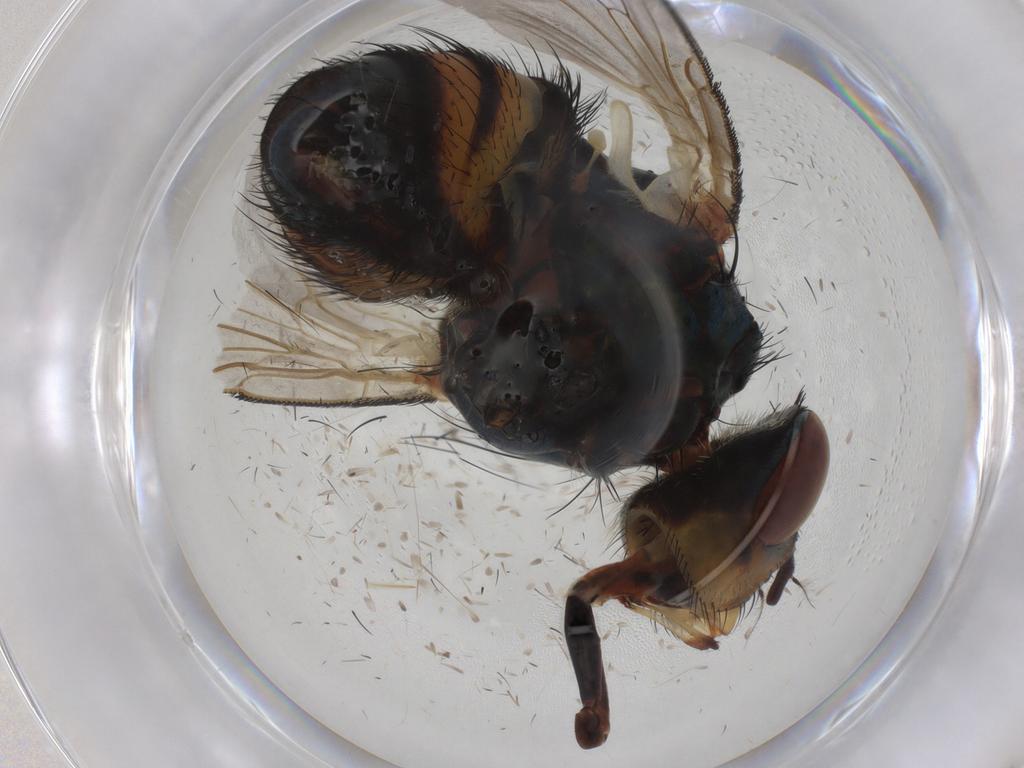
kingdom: Animalia
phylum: Arthropoda
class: Insecta
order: Diptera
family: Calliphoridae
